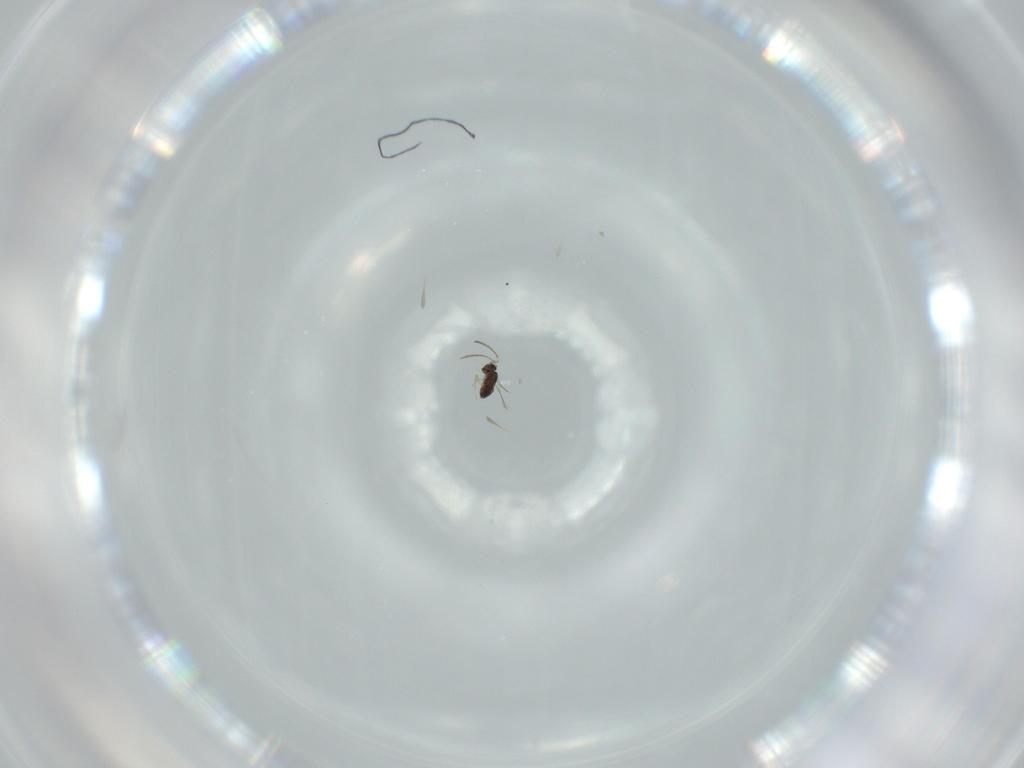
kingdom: Animalia
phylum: Arthropoda
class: Insecta
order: Hymenoptera
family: Bethylidae
